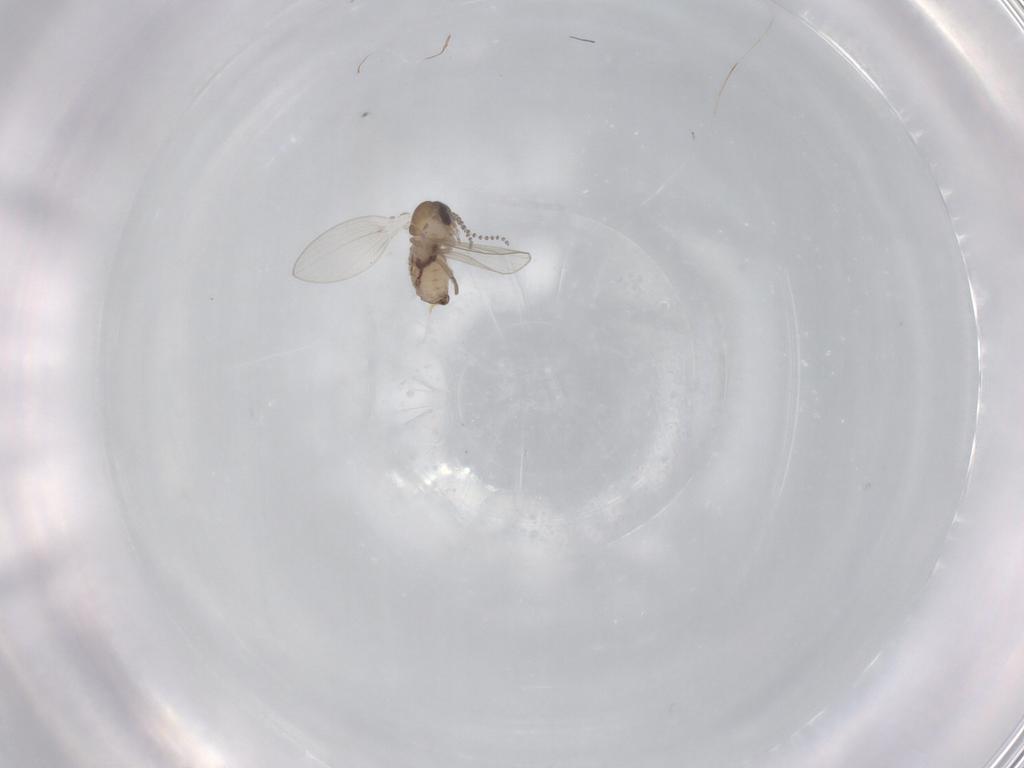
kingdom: Animalia
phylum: Arthropoda
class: Insecta
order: Diptera
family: Psychodidae
